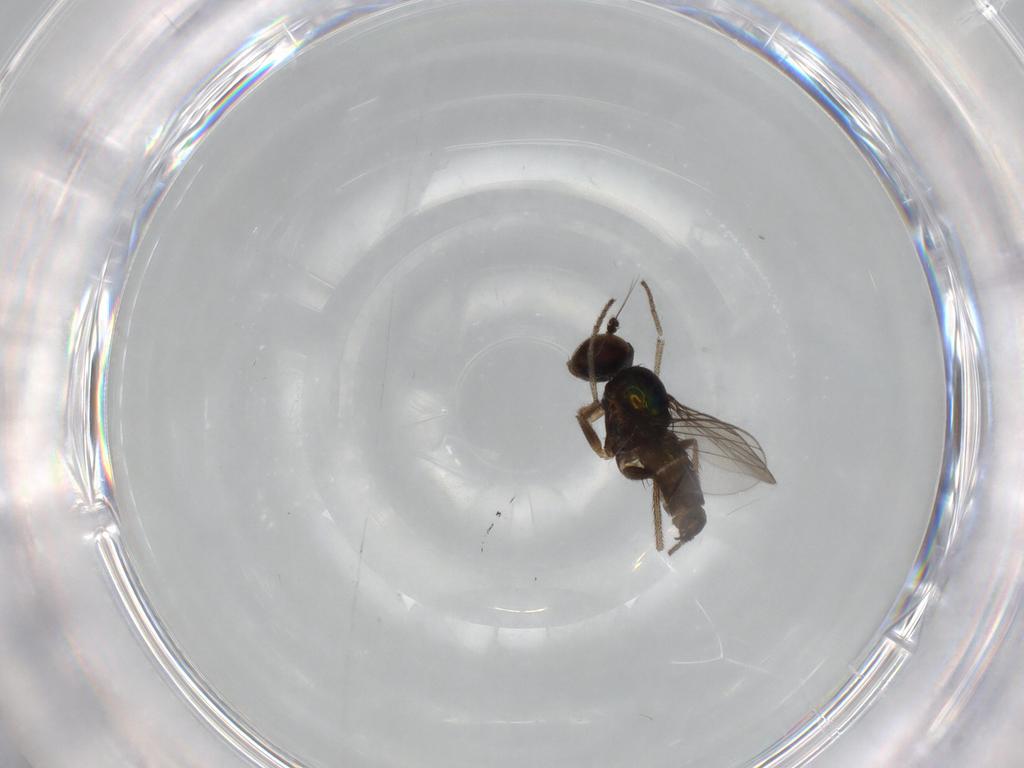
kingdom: Animalia
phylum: Arthropoda
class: Insecta
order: Diptera
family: Dolichopodidae
